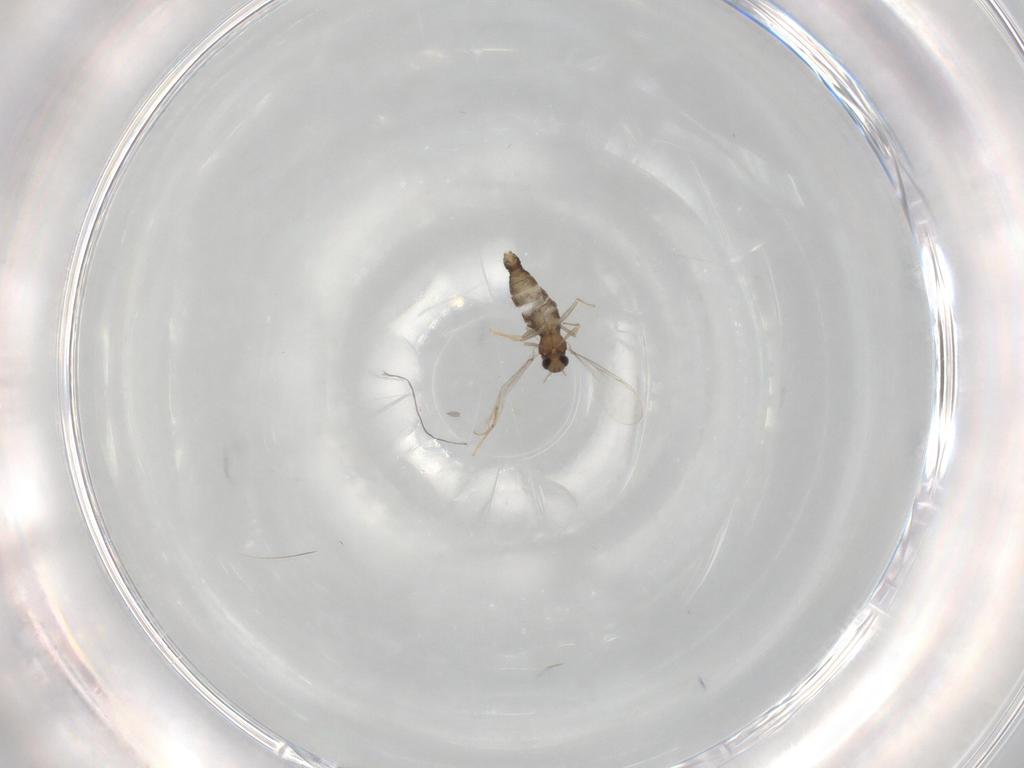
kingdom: Animalia
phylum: Arthropoda
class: Insecta
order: Diptera
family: Chironomidae
